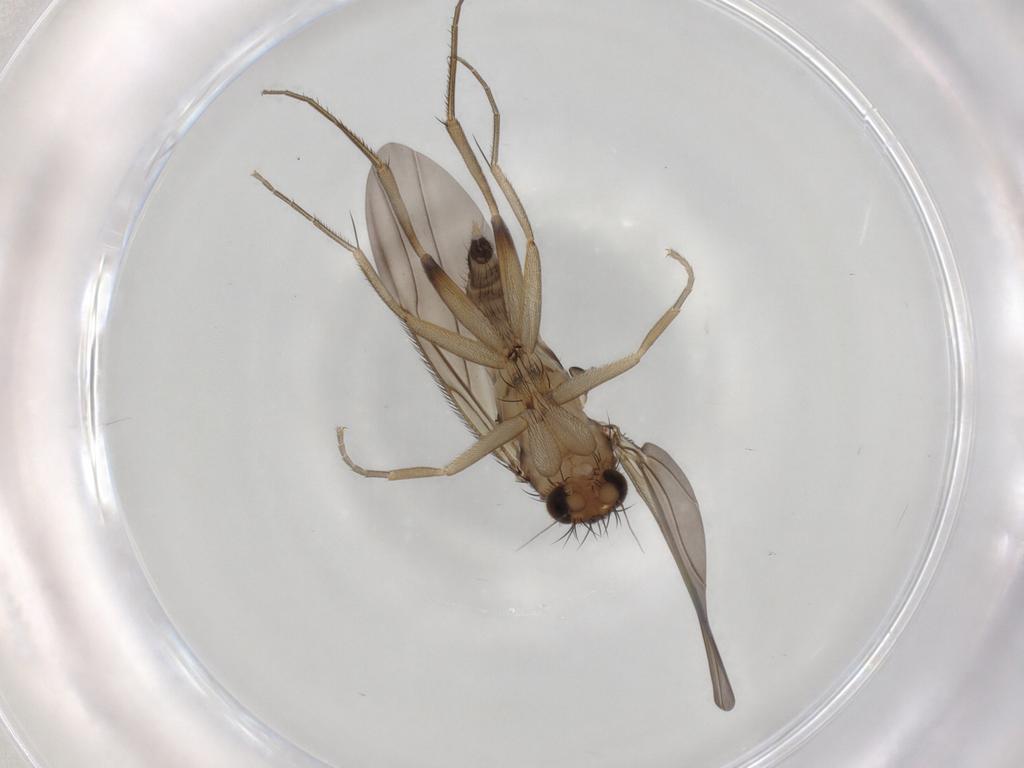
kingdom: Animalia
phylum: Arthropoda
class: Insecta
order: Diptera
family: Phoridae
